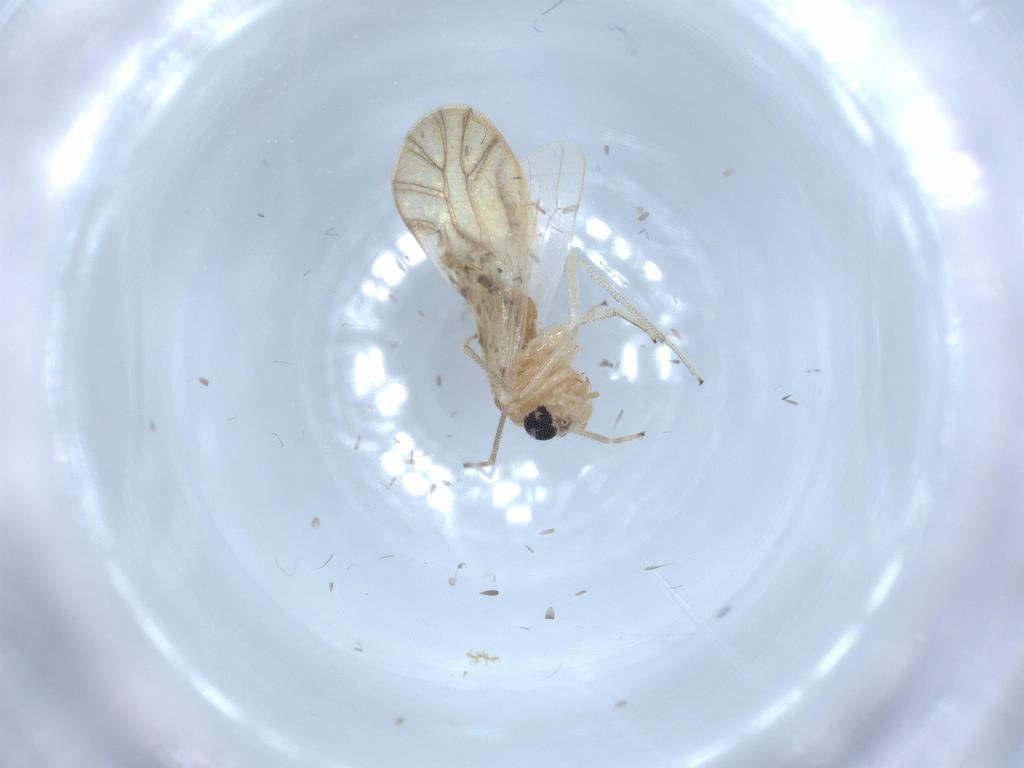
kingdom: Animalia
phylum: Arthropoda
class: Insecta
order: Psocodea
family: Caeciliusidae
